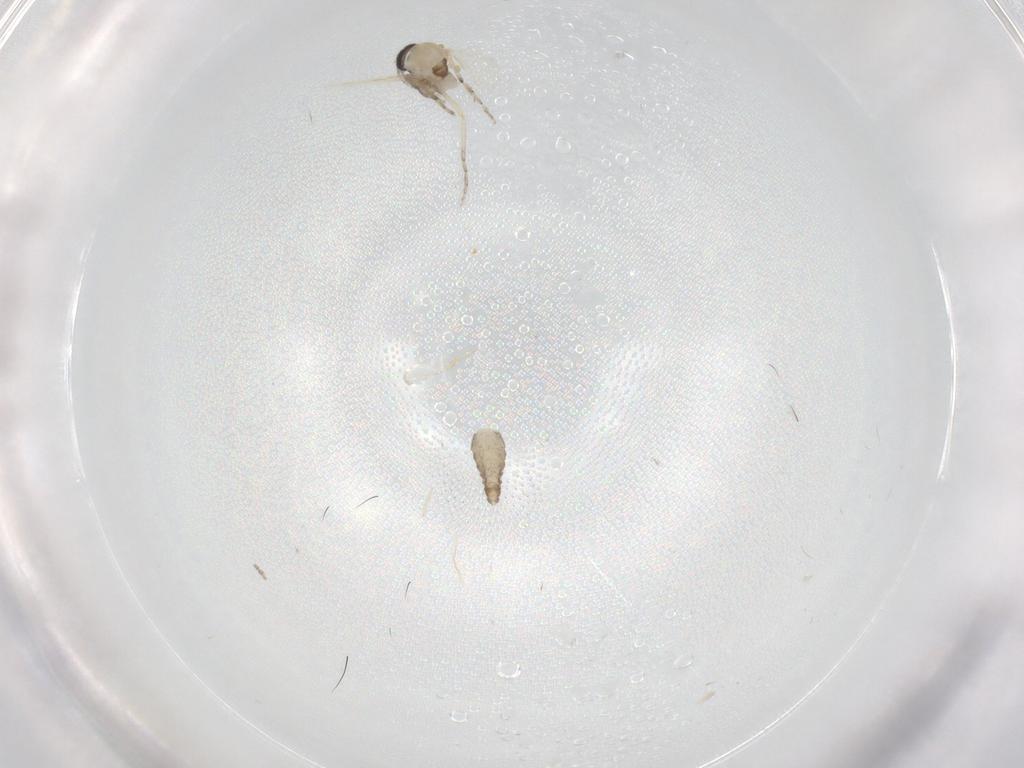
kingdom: Animalia
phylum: Arthropoda
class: Insecta
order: Diptera
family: Ceratopogonidae
